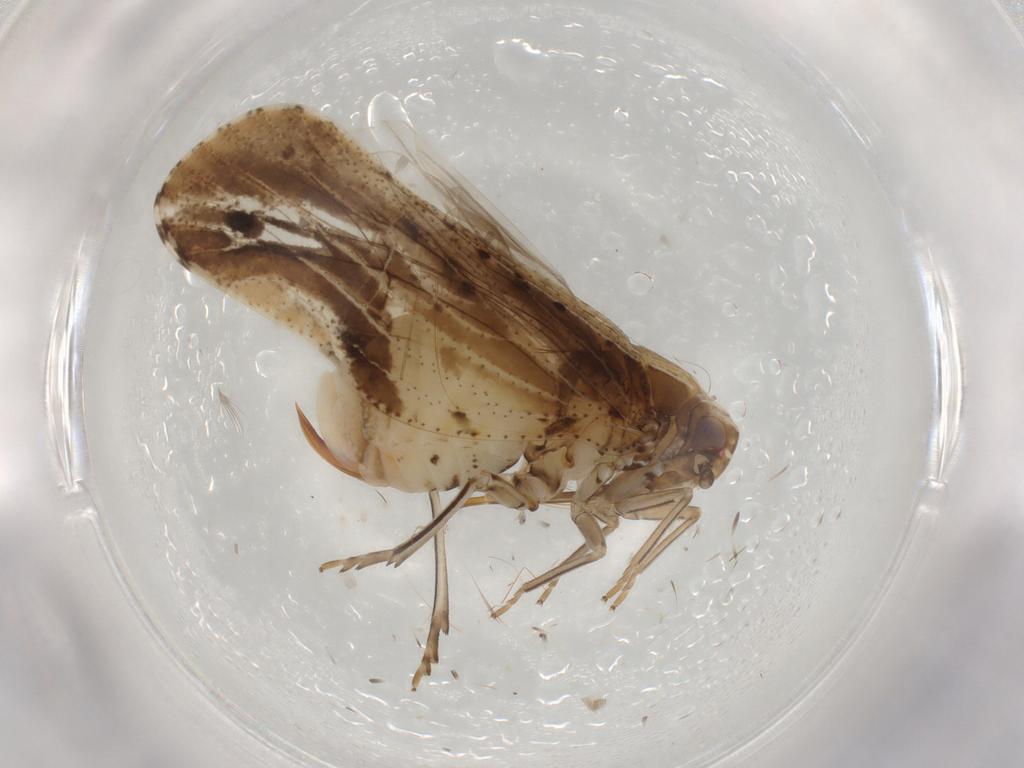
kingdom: Animalia
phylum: Arthropoda
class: Insecta
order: Hemiptera
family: Cixiidae
